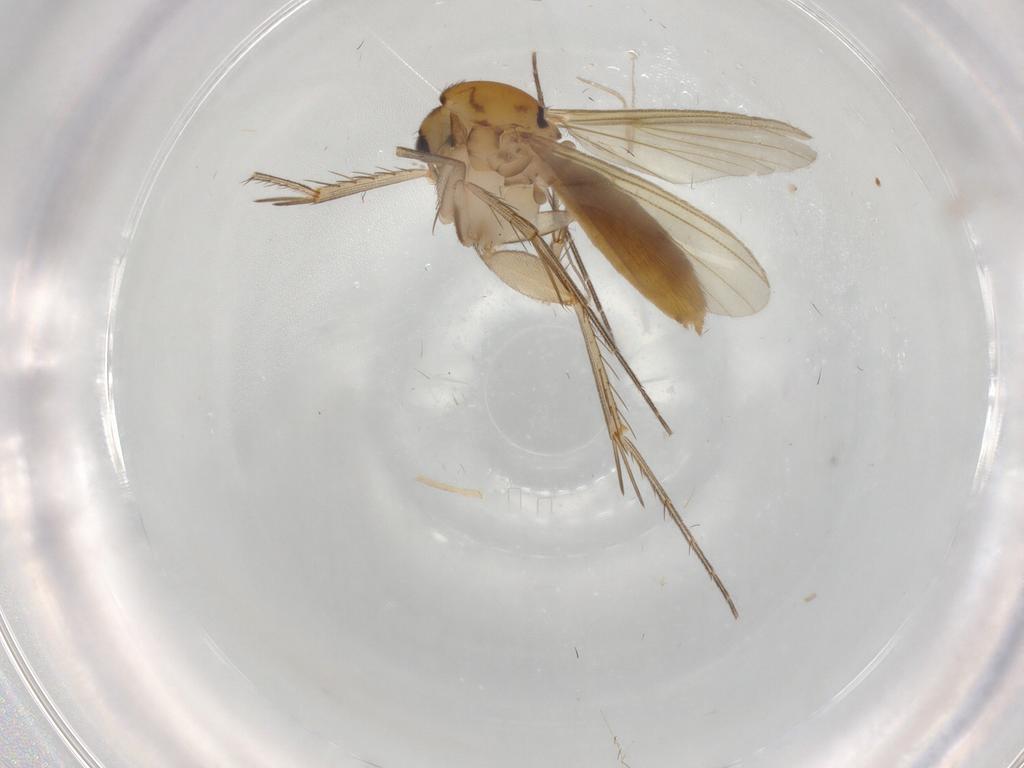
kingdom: Animalia
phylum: Arthropoda
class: Insecta
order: Diptera
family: Mycetophilidae
